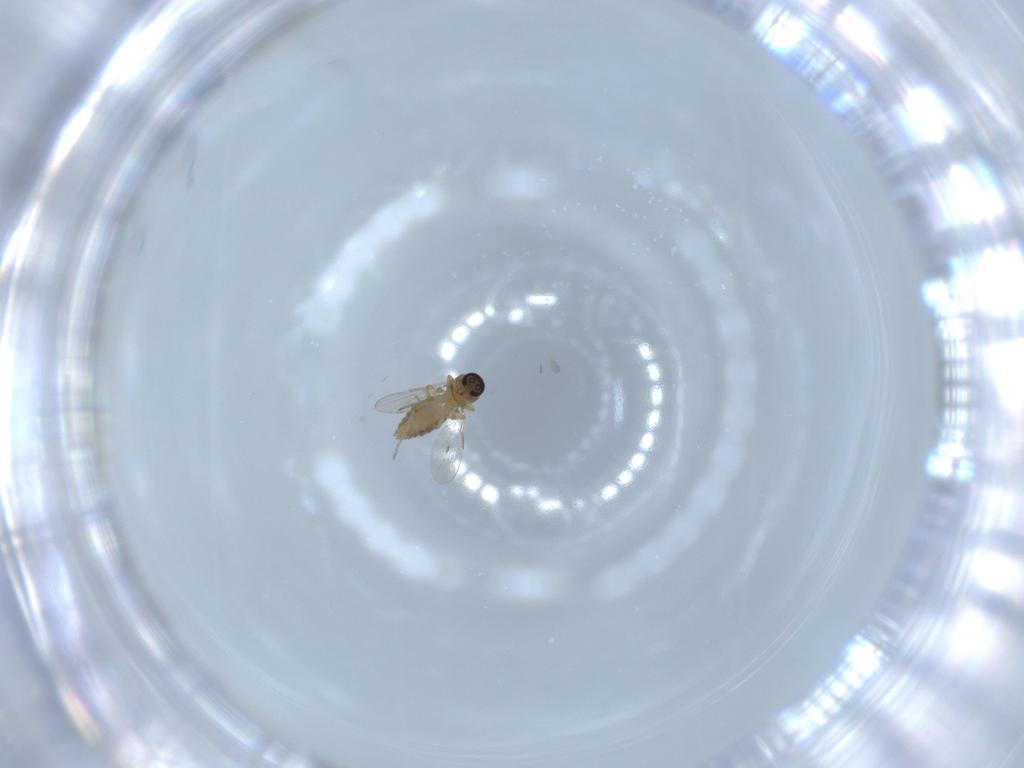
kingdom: Animalia
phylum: Arthropoda
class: Insecta
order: Diptera
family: Ceratopogonidae
